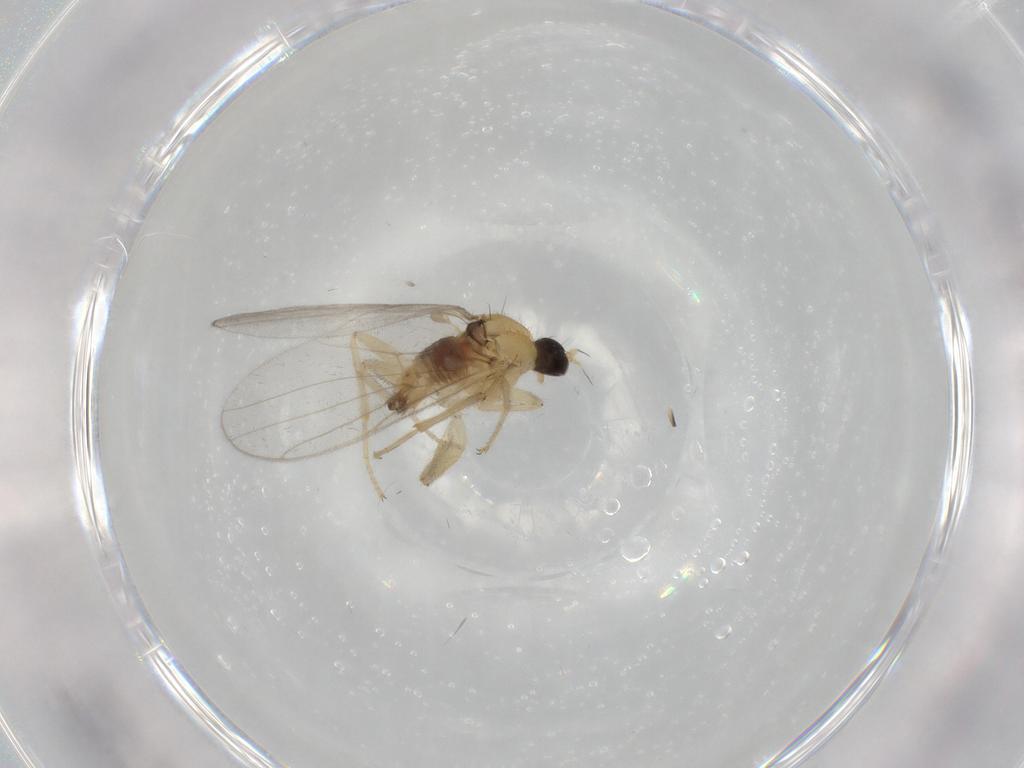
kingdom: Animalia
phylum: Arthropoda
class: Insecta
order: Diptera
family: Hybotidae
